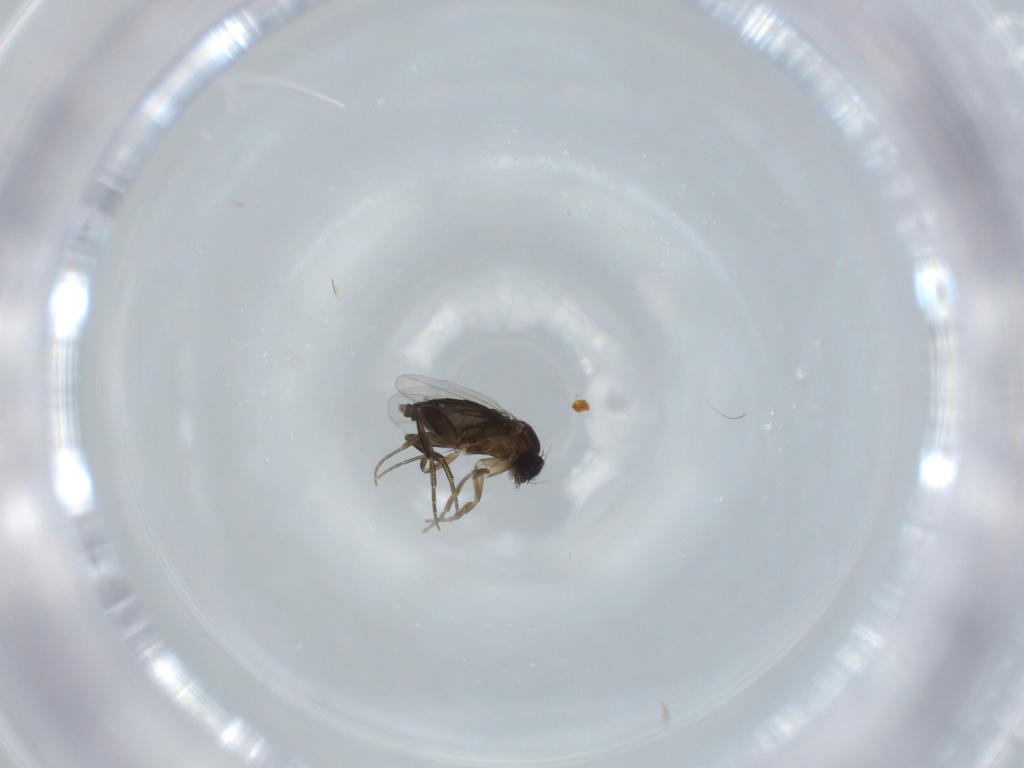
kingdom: Animalia
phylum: Arthropoda
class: Insecta
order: Diptera
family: Phoridae
